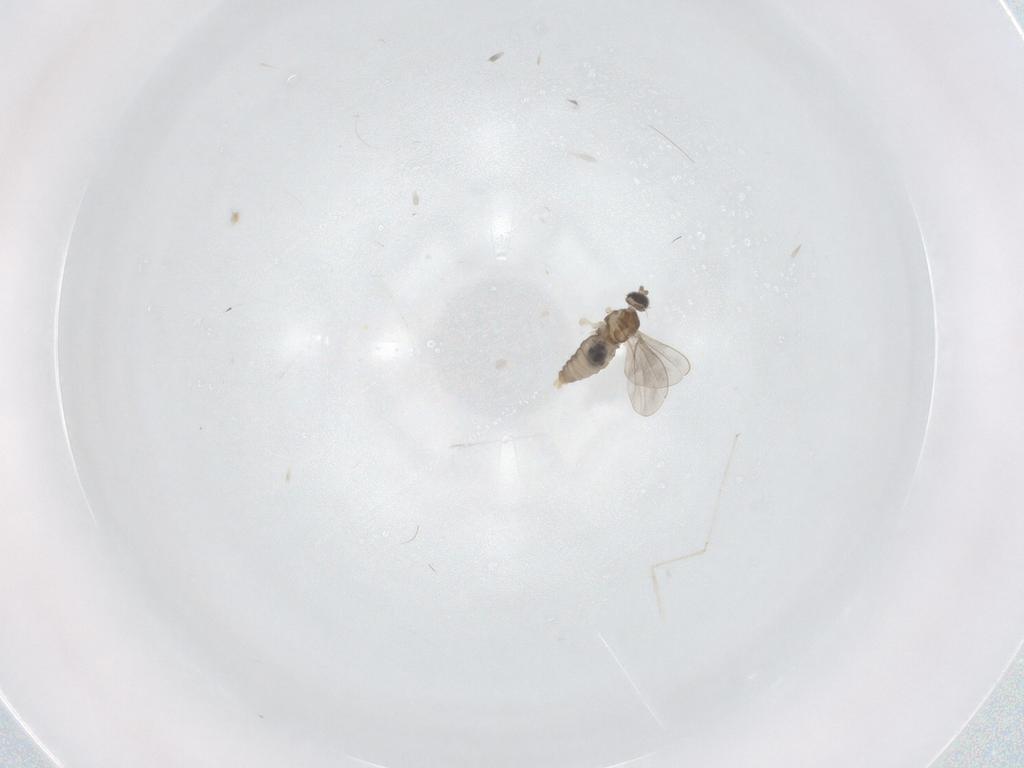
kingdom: Animalia
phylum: Arthropoda
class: Insecta
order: Diptera
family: Cecidomyiidae
